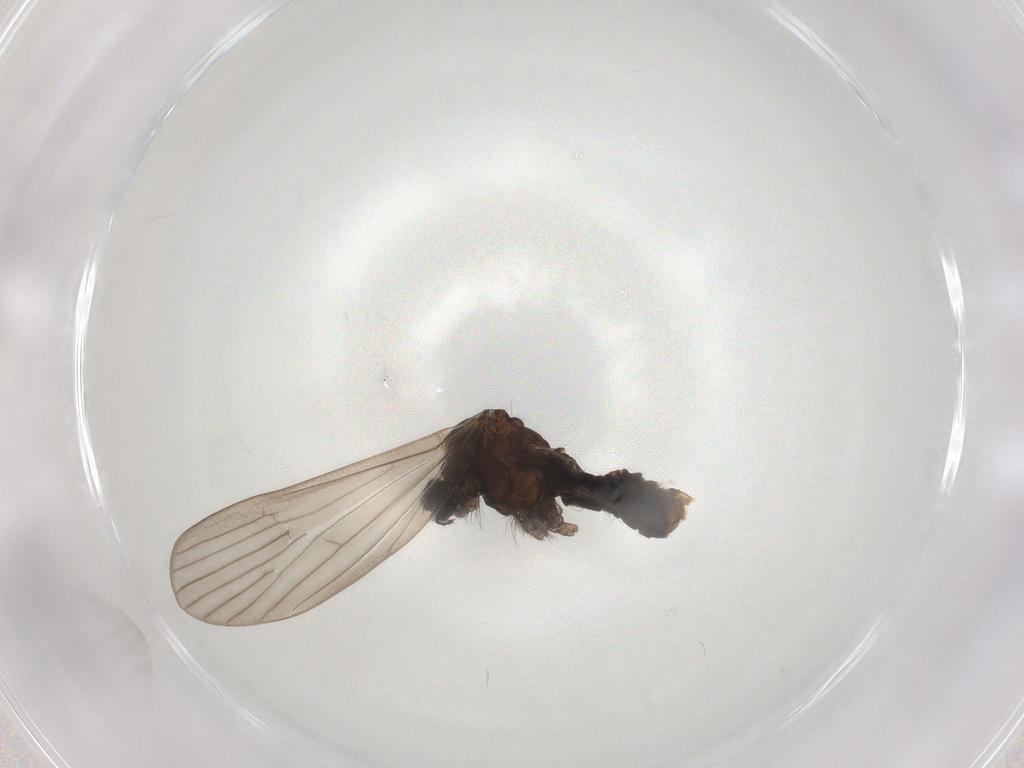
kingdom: Animalia
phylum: Arthropoda
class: Insecta
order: Diptera
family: Limoniidae
